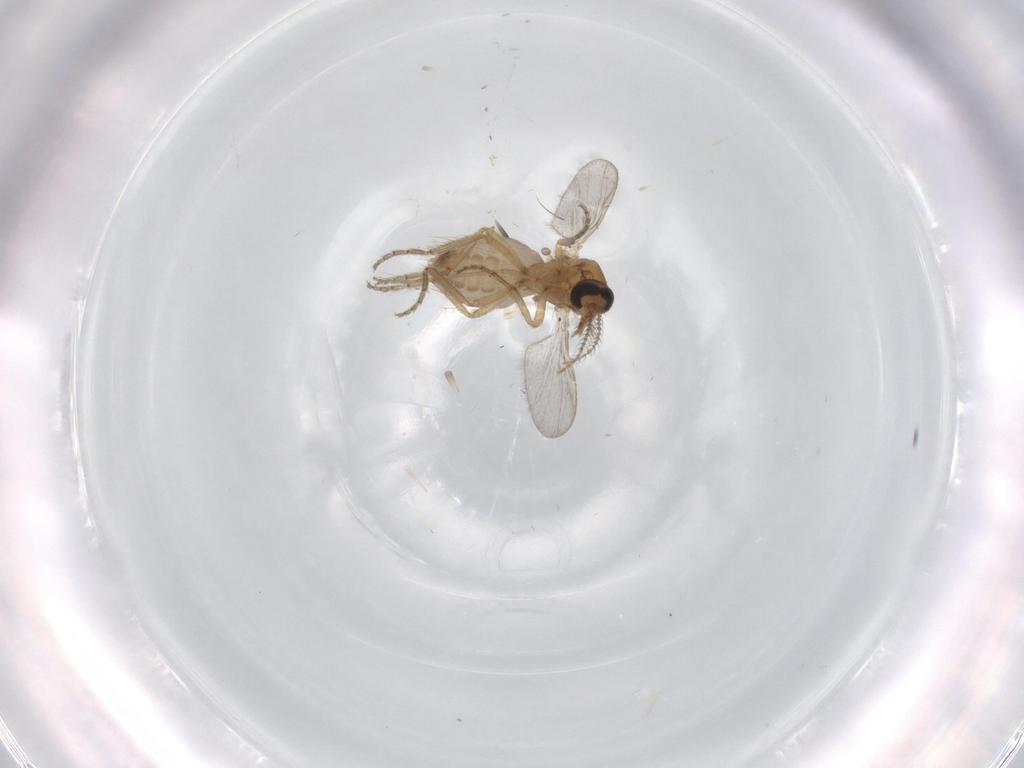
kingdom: Animalia
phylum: Arthropoda
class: Insecta
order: Diptera
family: Ceratopogonidae
